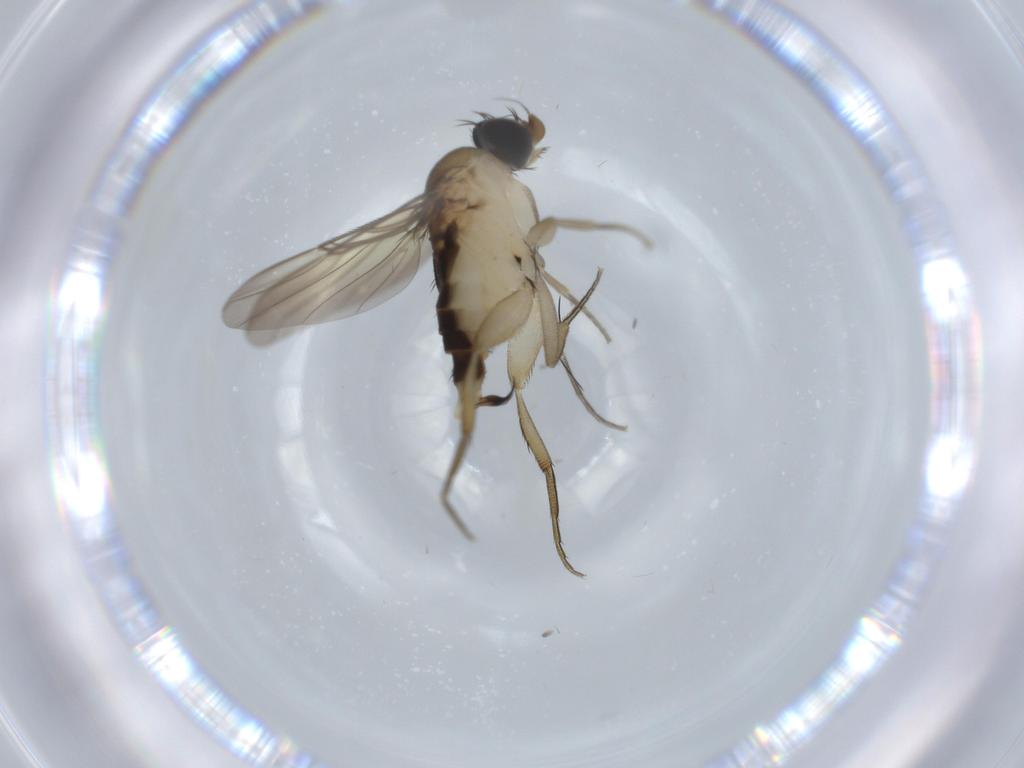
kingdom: Animalia
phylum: Arthropoda
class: Insecta
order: Diptera
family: Phoridae
